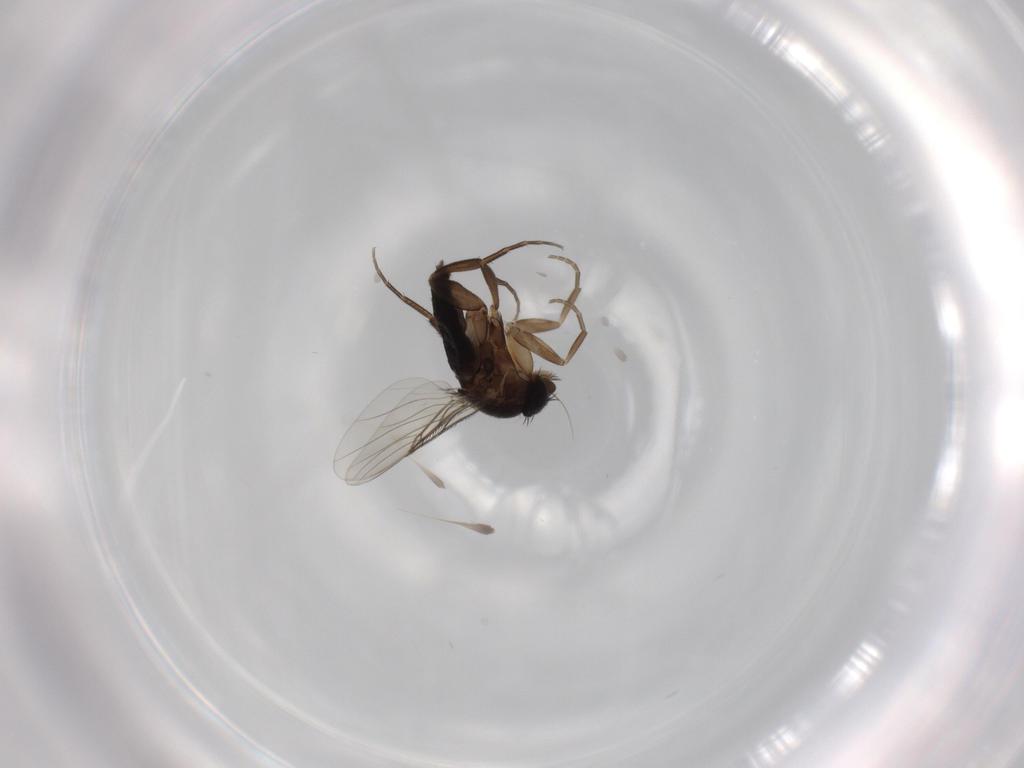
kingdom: Animalia
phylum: Arthropoda
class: Insecta
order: Diptera
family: Phoridae
